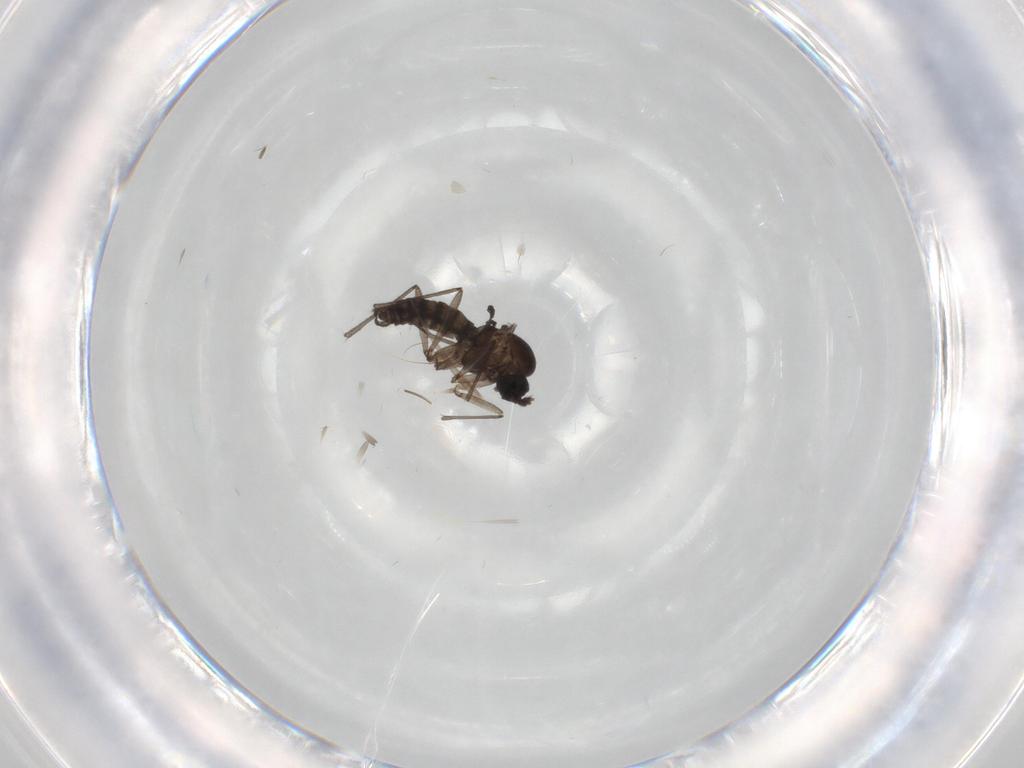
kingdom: Animalia
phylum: Arthropoda
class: Insecta
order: Diptera
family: Sciaridae
